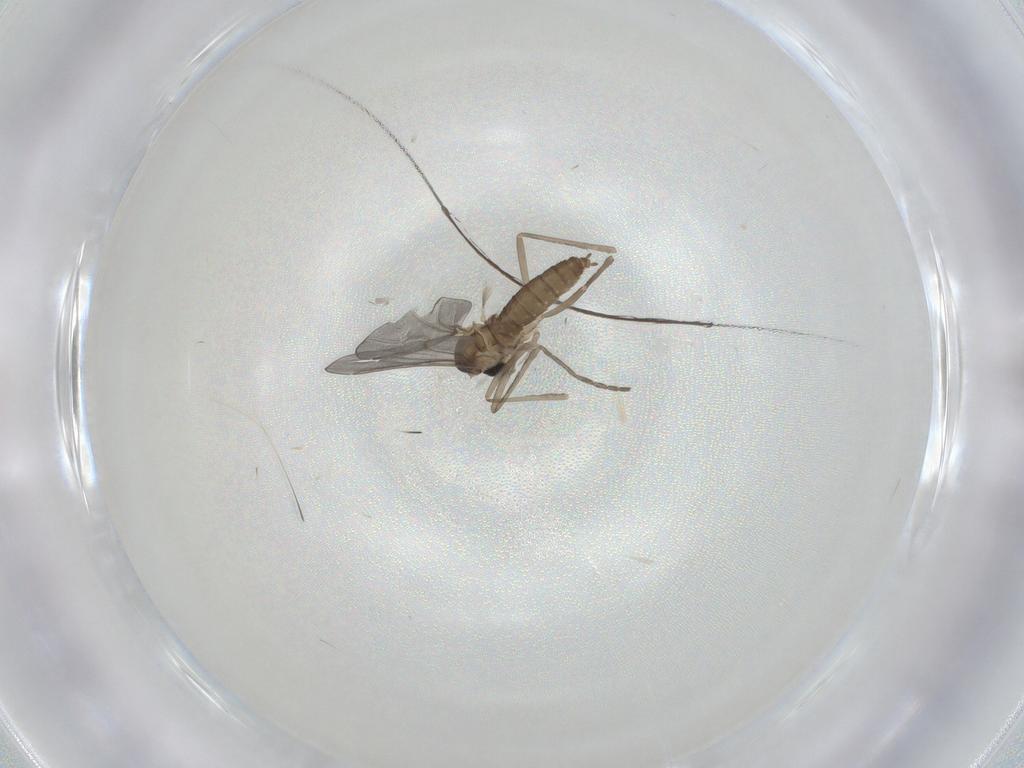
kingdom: Animalia
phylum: Arthropoda
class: Insecta
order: Diptera
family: Cecidomyiidae
